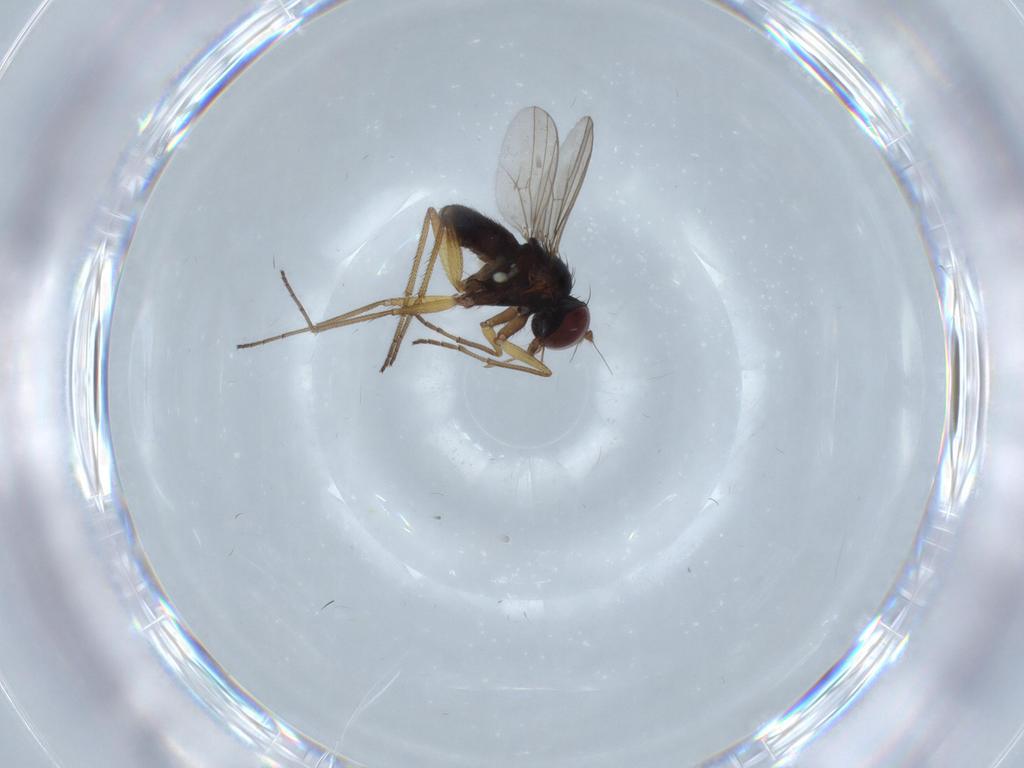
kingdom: Animalia
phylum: Arthropoda
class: Insecta
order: Diptera
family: Dolichopodidae
